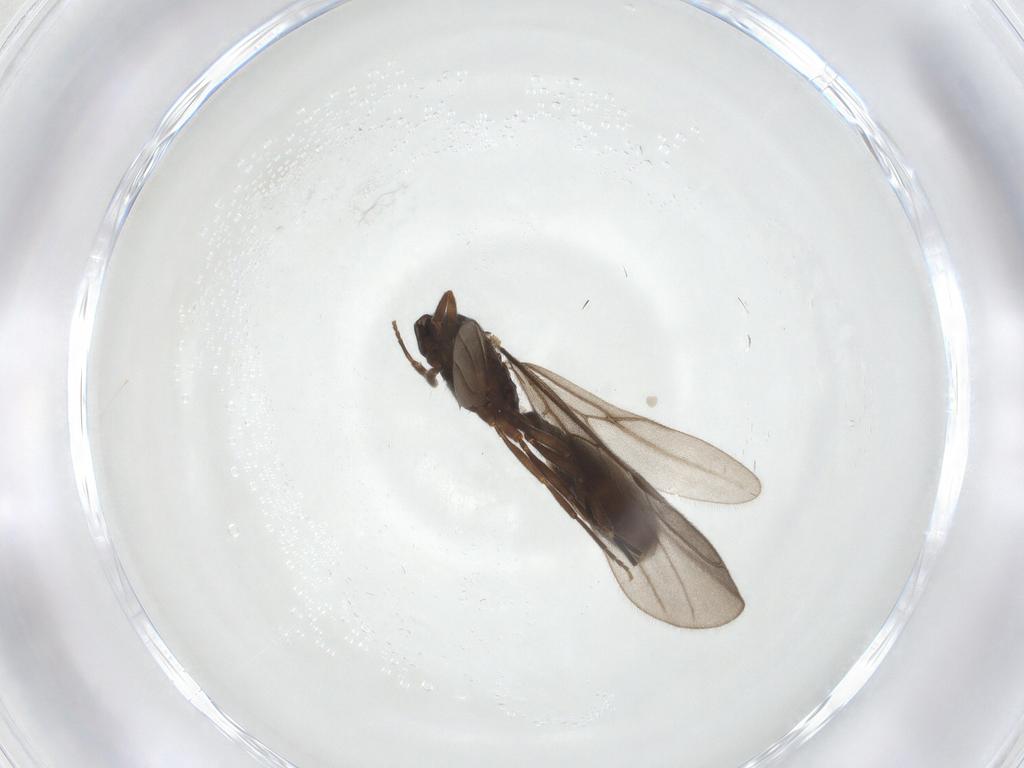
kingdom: Animalia
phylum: Arthropoda
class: Insecta
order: Hymenoptera
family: Formicidae
